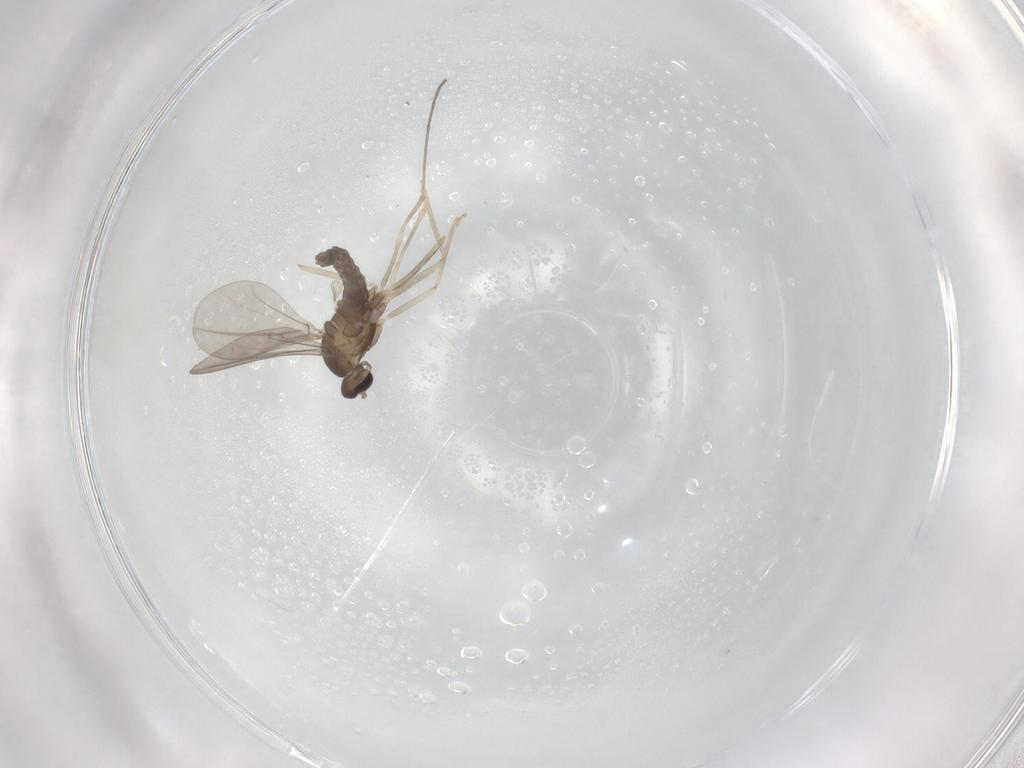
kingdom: Animalia
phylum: Arthropoda
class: Insecta
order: Diptera
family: Cecidomyiidae
